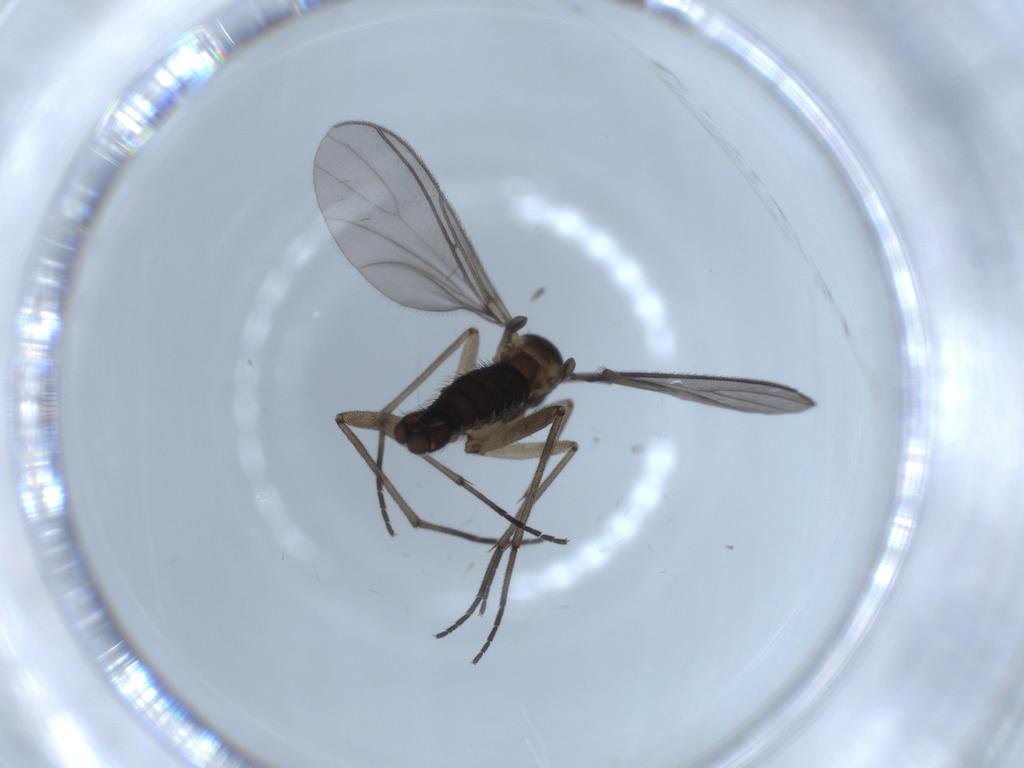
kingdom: Animalia
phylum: Arthropoda
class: Insecta
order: Diptera
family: Sciaridae
